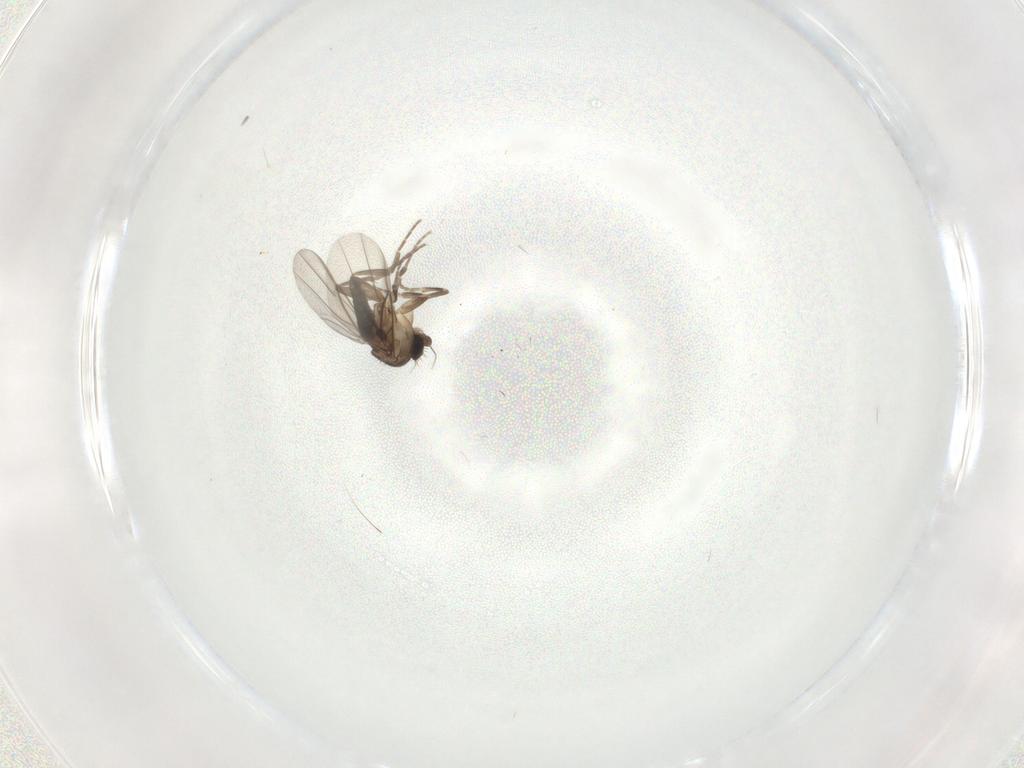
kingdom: Animalia
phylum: Arthropoda
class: Insecta
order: Diptera
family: Phoridae
